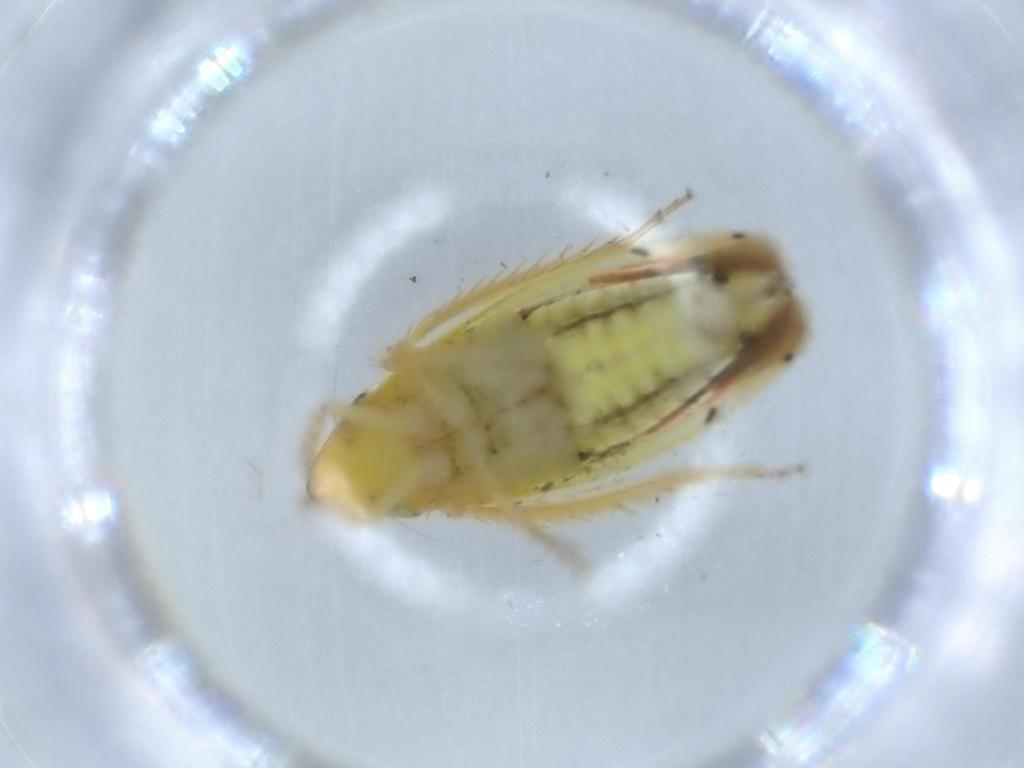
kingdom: Animalia
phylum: Arthropoda
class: Insecta
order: Hemiptera
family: Cicadellidae
